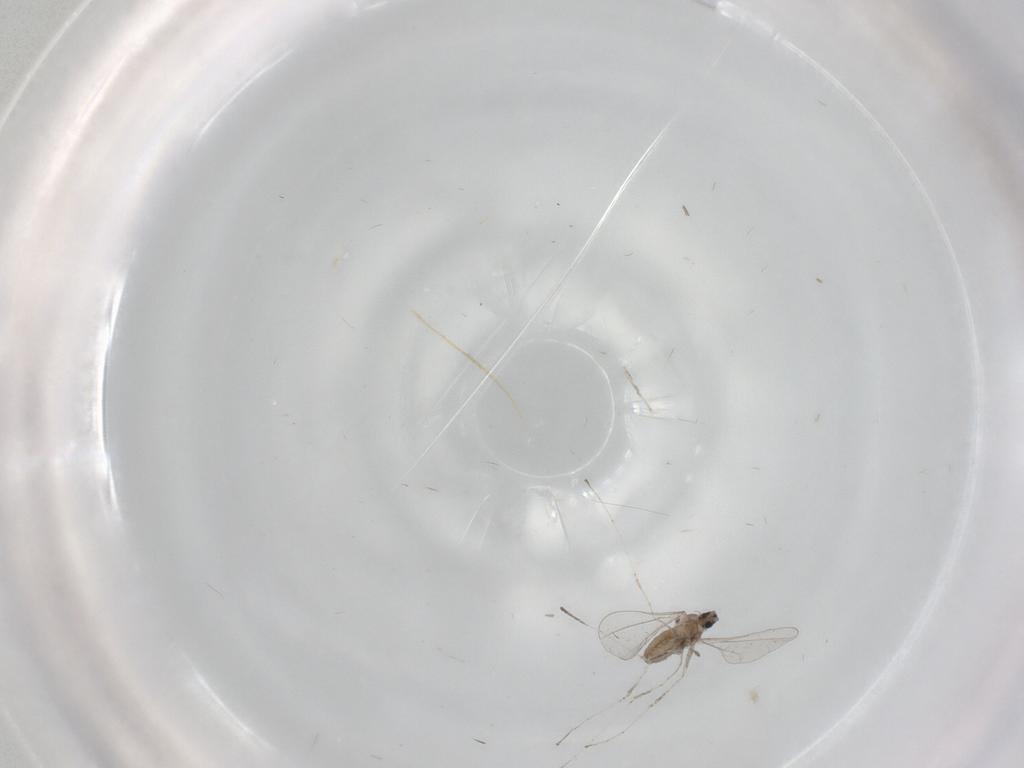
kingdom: Animalia
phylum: Arthropoda
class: Insecta
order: Diptera
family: Cecidomyiidae
